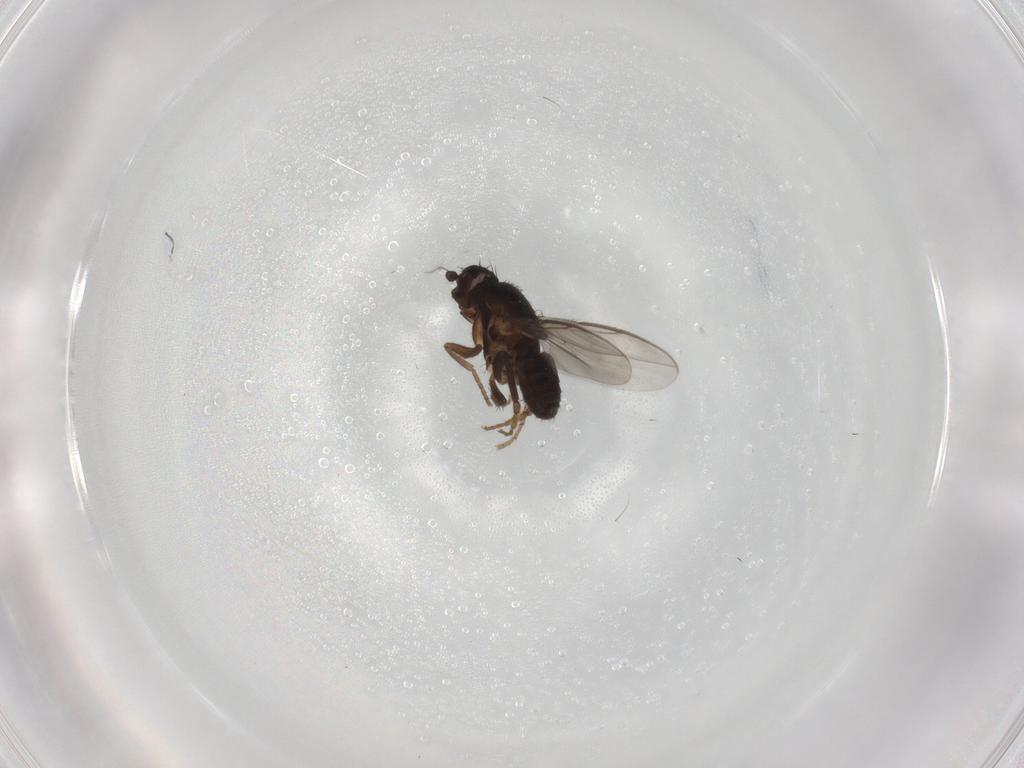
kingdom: Animalia
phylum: Arthropoda
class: Insecta
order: Diptera
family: Sphaeroceridae
